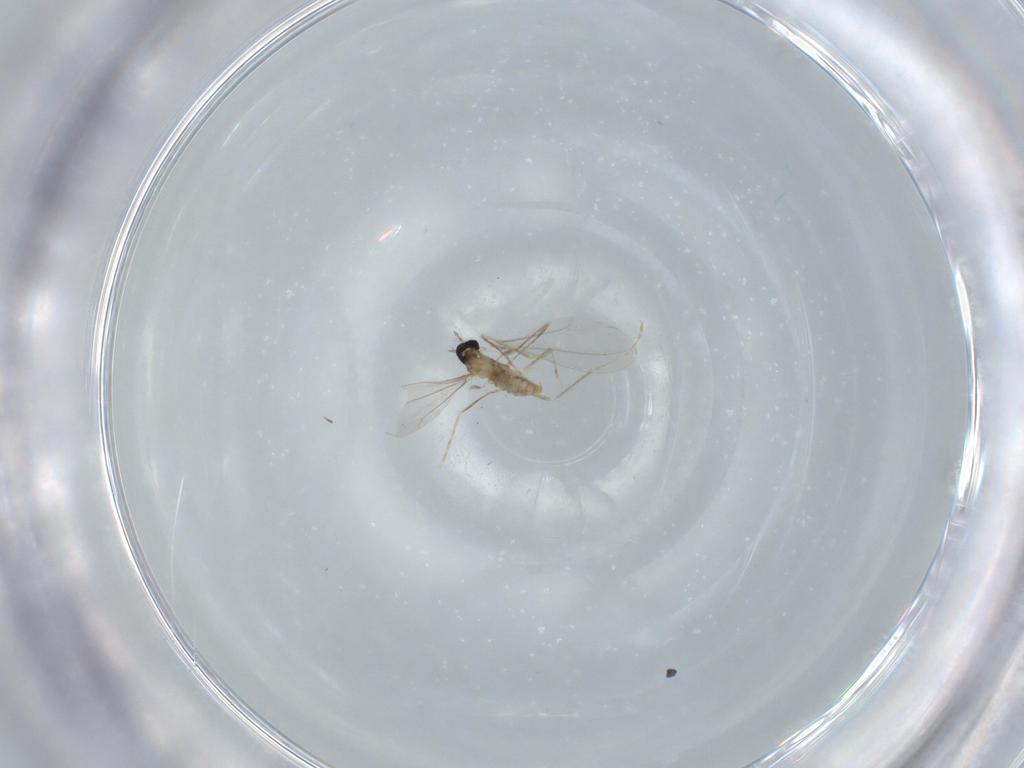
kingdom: Animalia
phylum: Arthropoda
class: Insecta
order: Diptera
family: Cecidomyiidae
